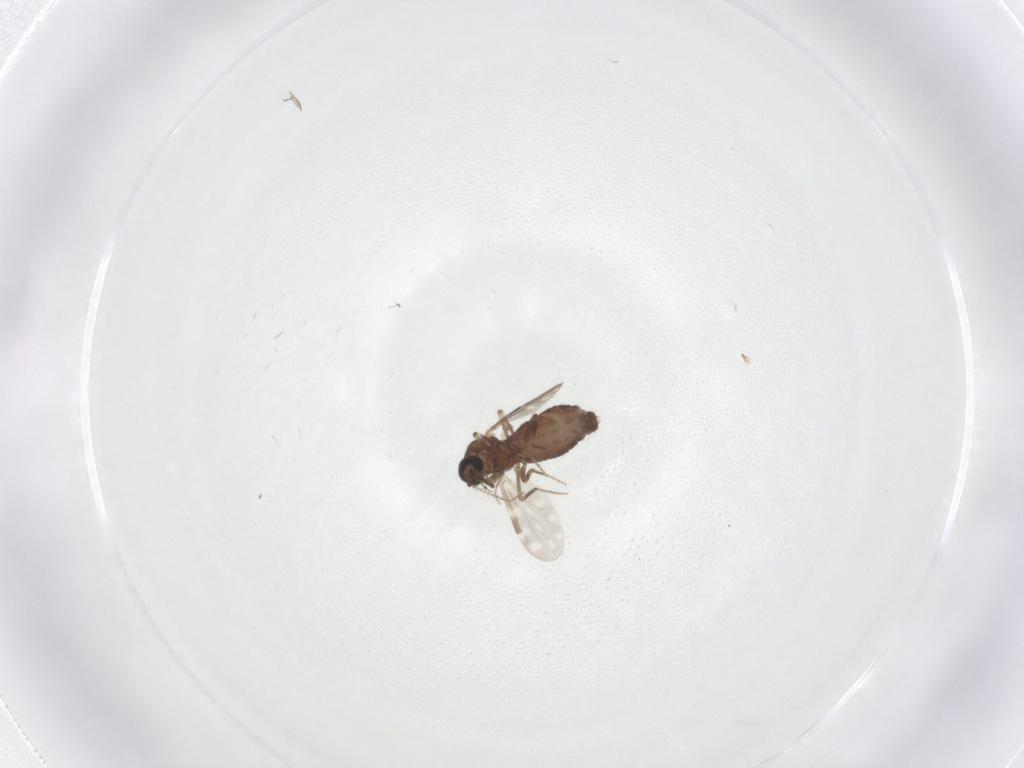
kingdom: Animalia
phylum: Arthropoda
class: Insecta
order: Diptera
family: Ceratopogonidae
